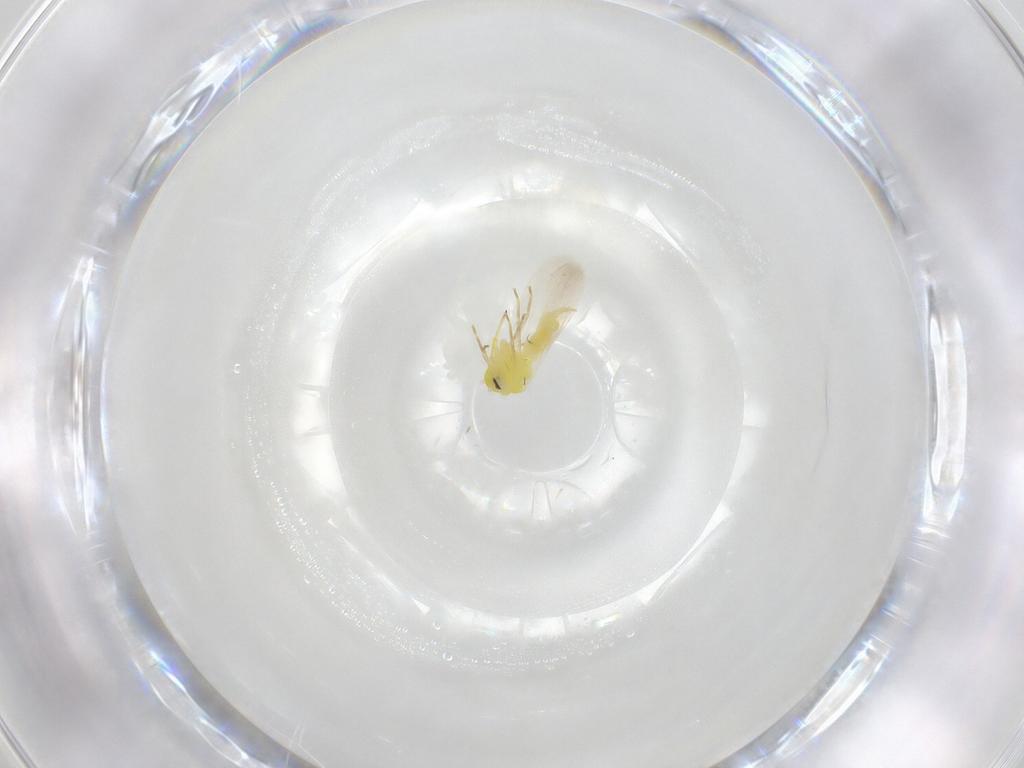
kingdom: Animalia
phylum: Arthropoda
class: Insecta
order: Hemiptera
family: Aleyrodidae
